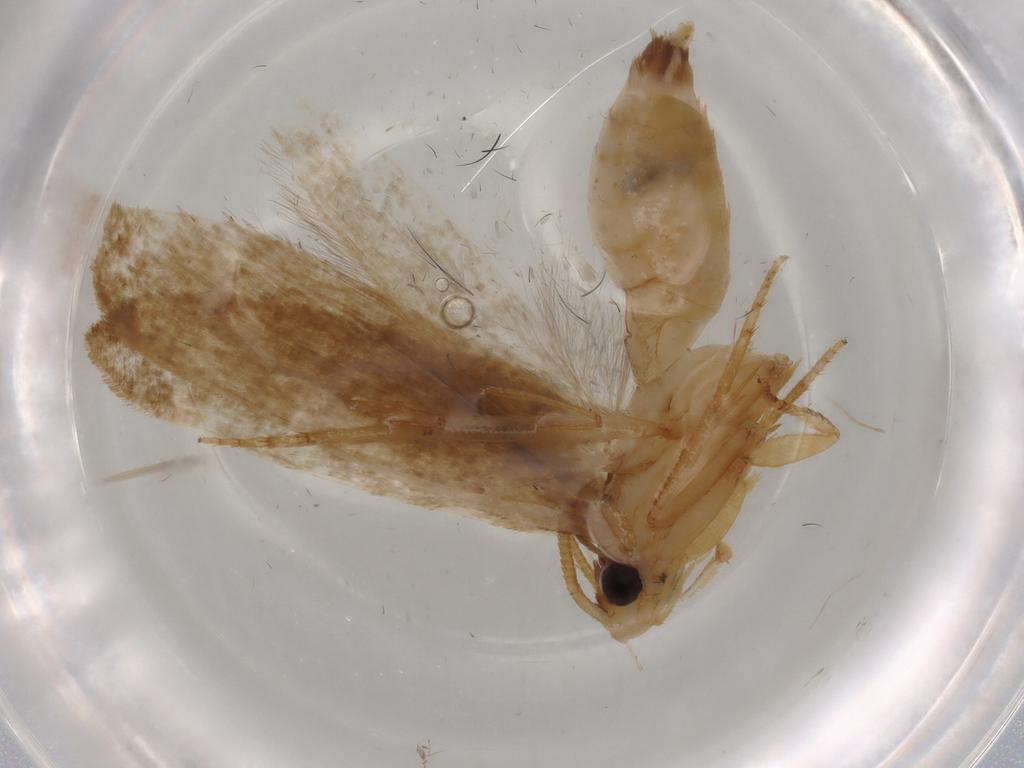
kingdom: Animalia
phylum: Arthropoda
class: Insecta
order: Lepidoptera
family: Tineidae
